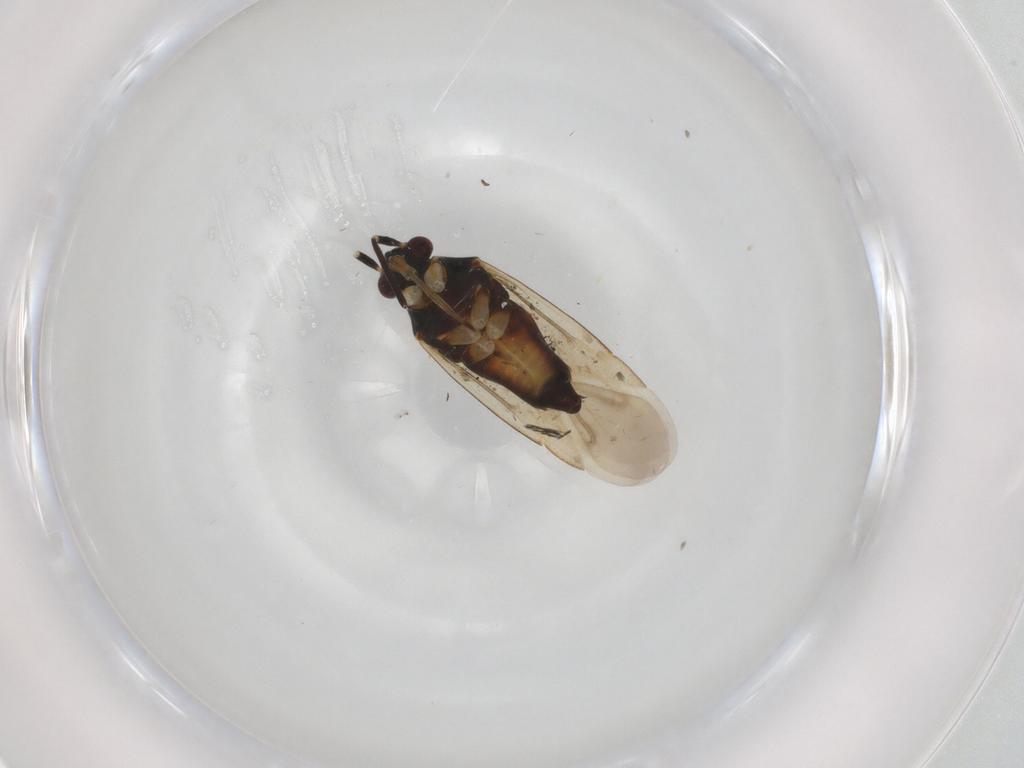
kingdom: Animalia
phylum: Arthropoda
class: Insecta
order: Hemiptera
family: Miridae
